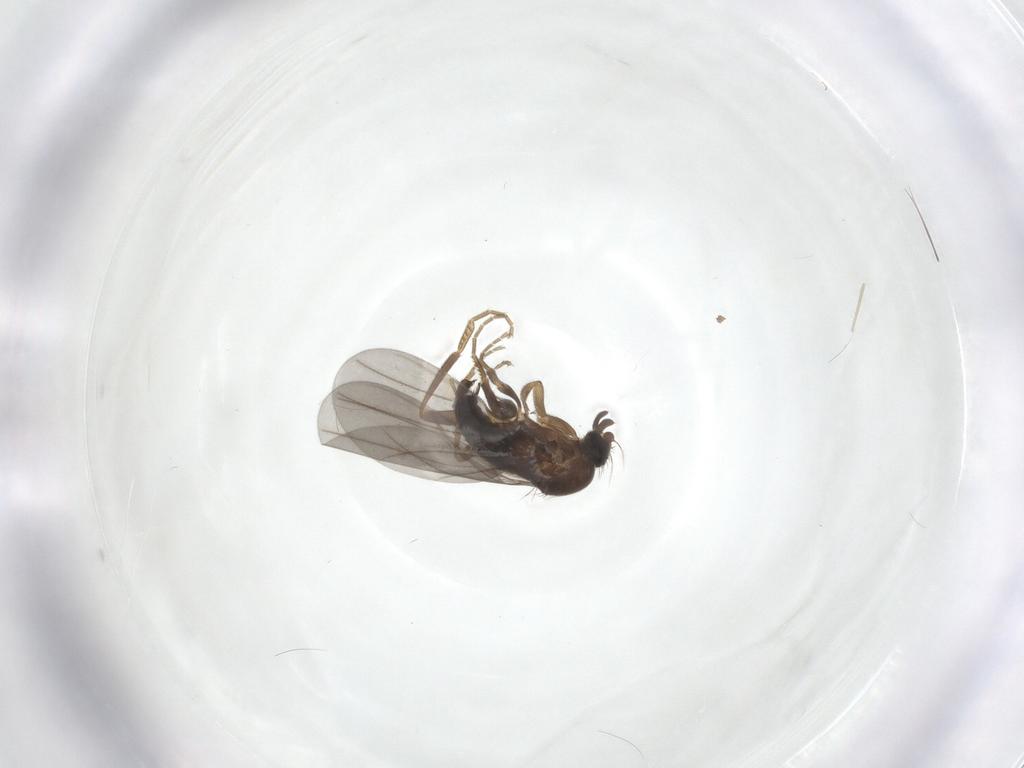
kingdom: Animalia
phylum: Arthropoda
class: Insecta
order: Diptera
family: Phoridae
